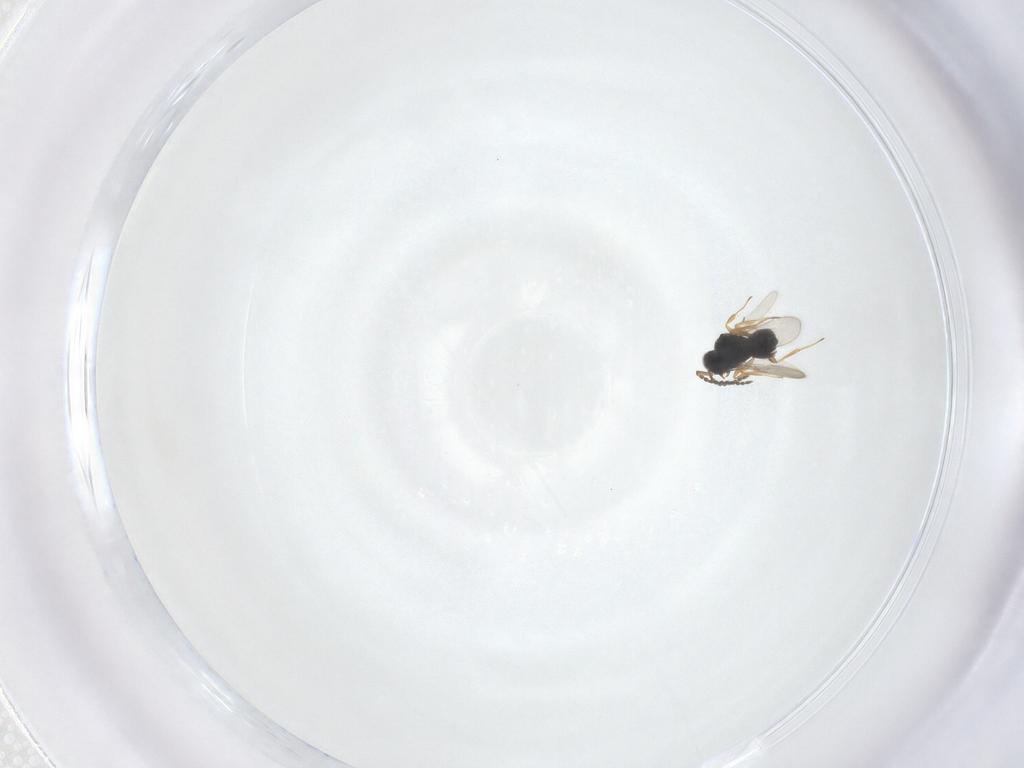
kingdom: Animalia
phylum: Arthropoda
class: Insecta
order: Hymenoptera
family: Scelionidae
